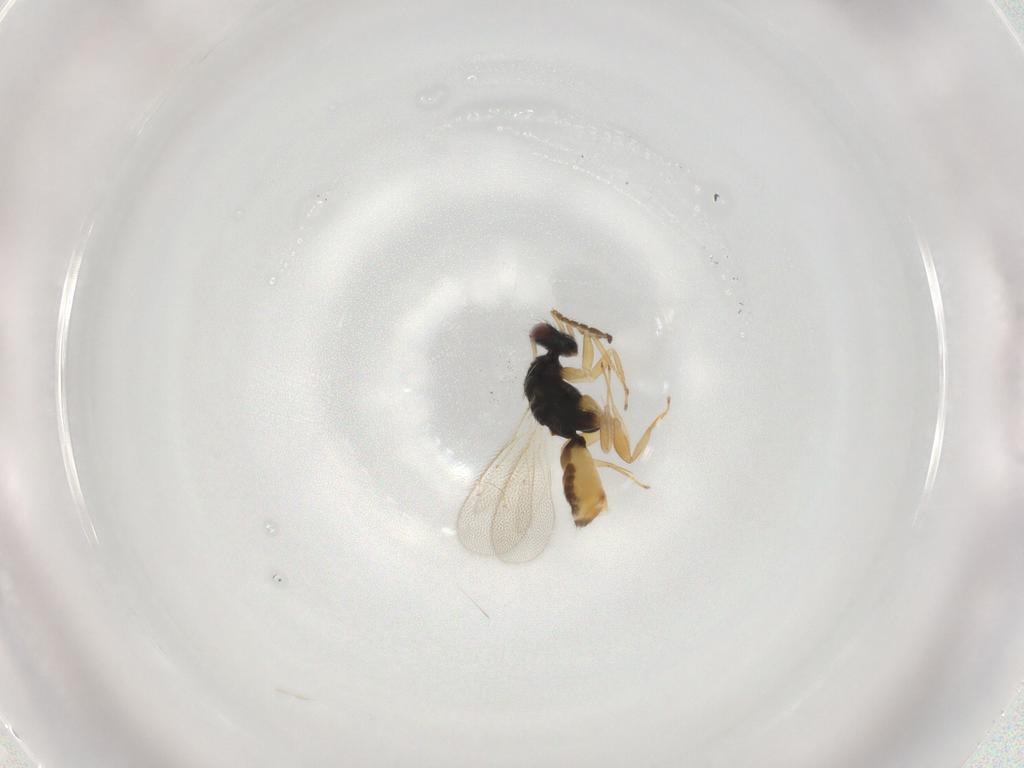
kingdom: Animalia
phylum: Arthropoda
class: Insecta
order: Hymenoptera
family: Eulophidae
